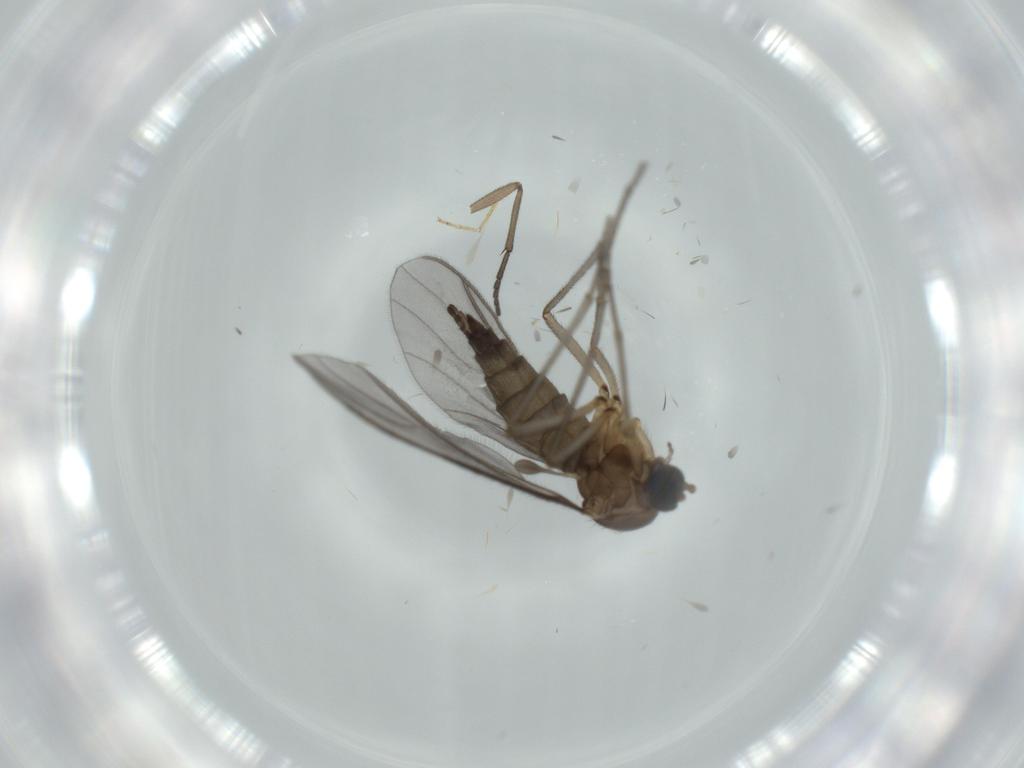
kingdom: Animalia
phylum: Arthropoda
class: Insecta
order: Diptera
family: Sciaridae
